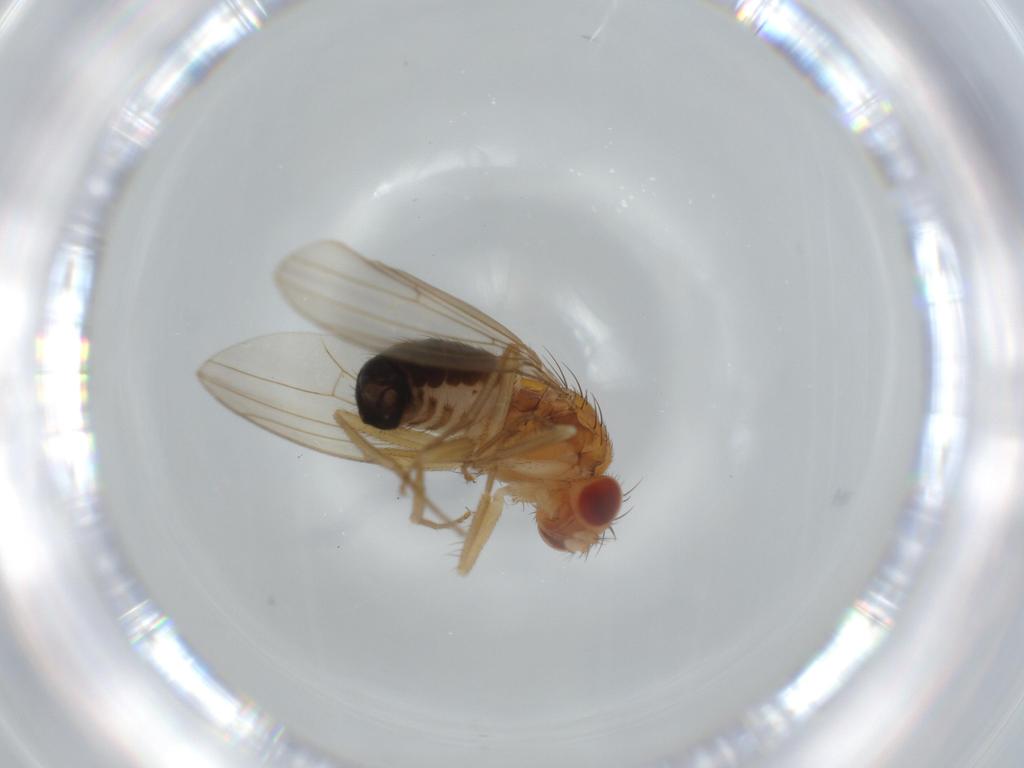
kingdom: Animalia
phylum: Arthropoda
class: Insecta
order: Diptera
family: Drosophilidae
